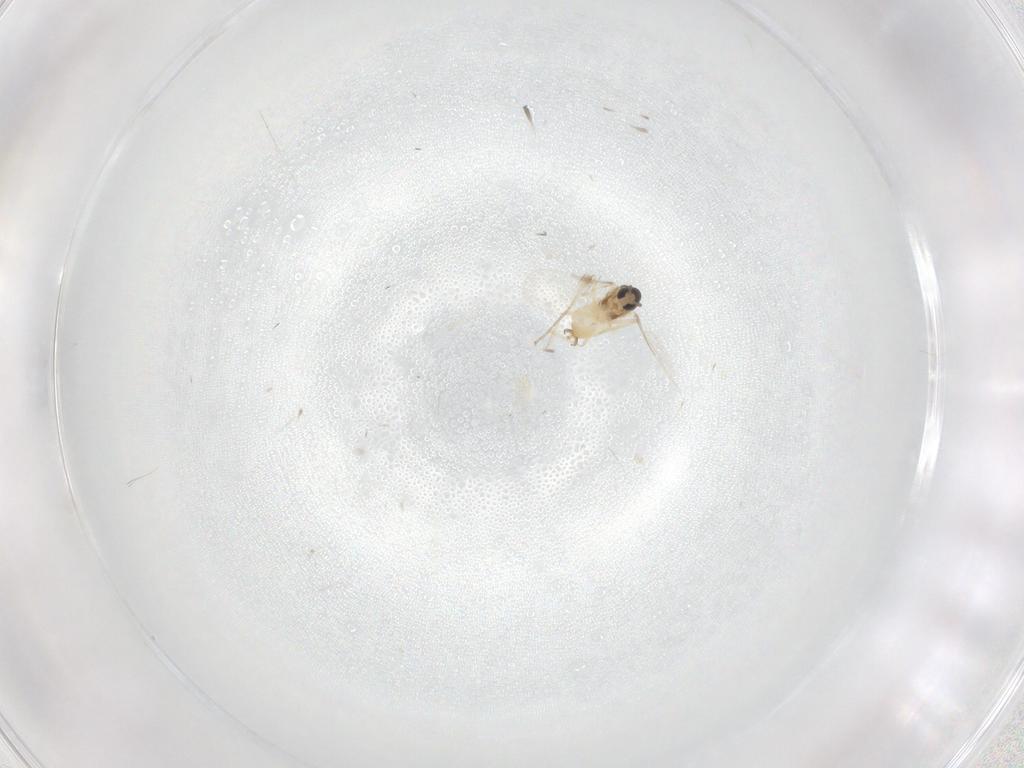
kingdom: Animalia
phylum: Arthropoda
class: Insecta
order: Diptera
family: Cecidomyiidae
